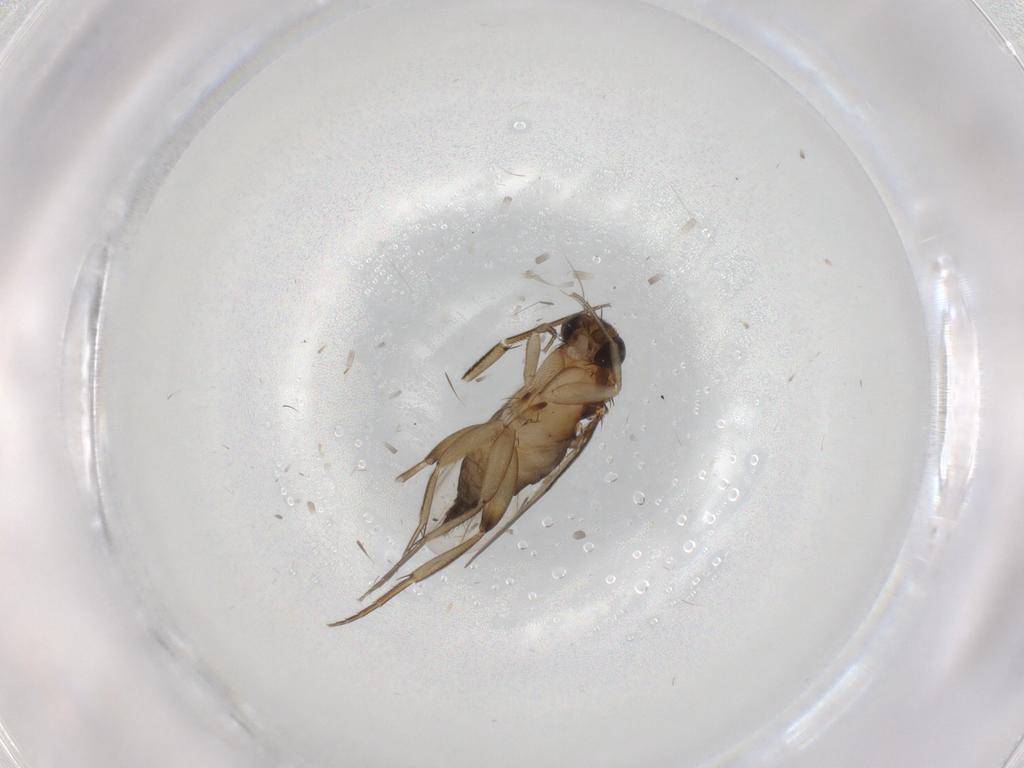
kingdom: Animalia
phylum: Arthropoda
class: Insecta
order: Diptera
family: Phoridae
